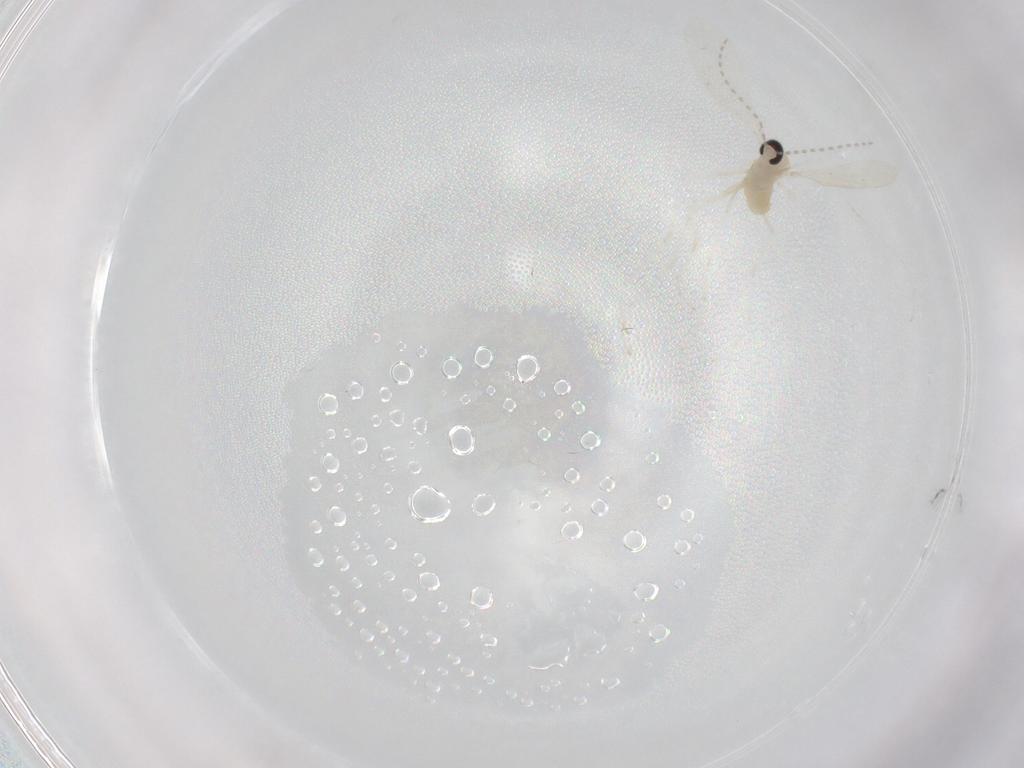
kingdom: Animalia
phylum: Arthropoda
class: Insecta
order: Diptera
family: Cecidomyiidae
